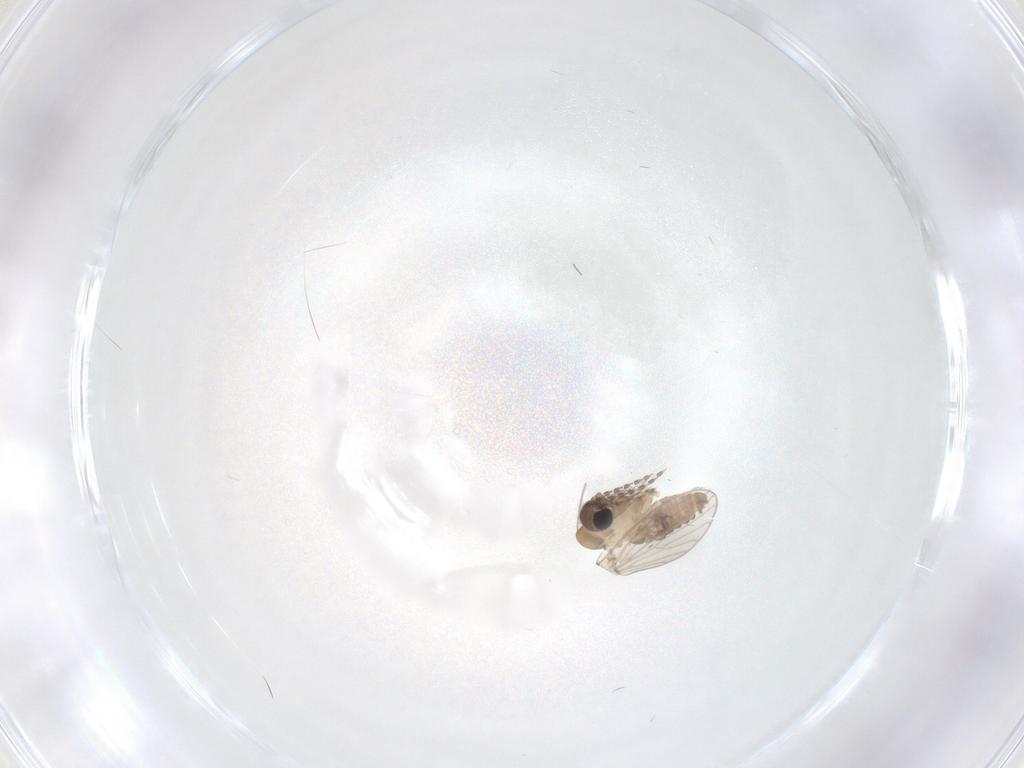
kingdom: Animalia
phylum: Arthropoda
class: Insecta
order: Diptera
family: Psychodidae
